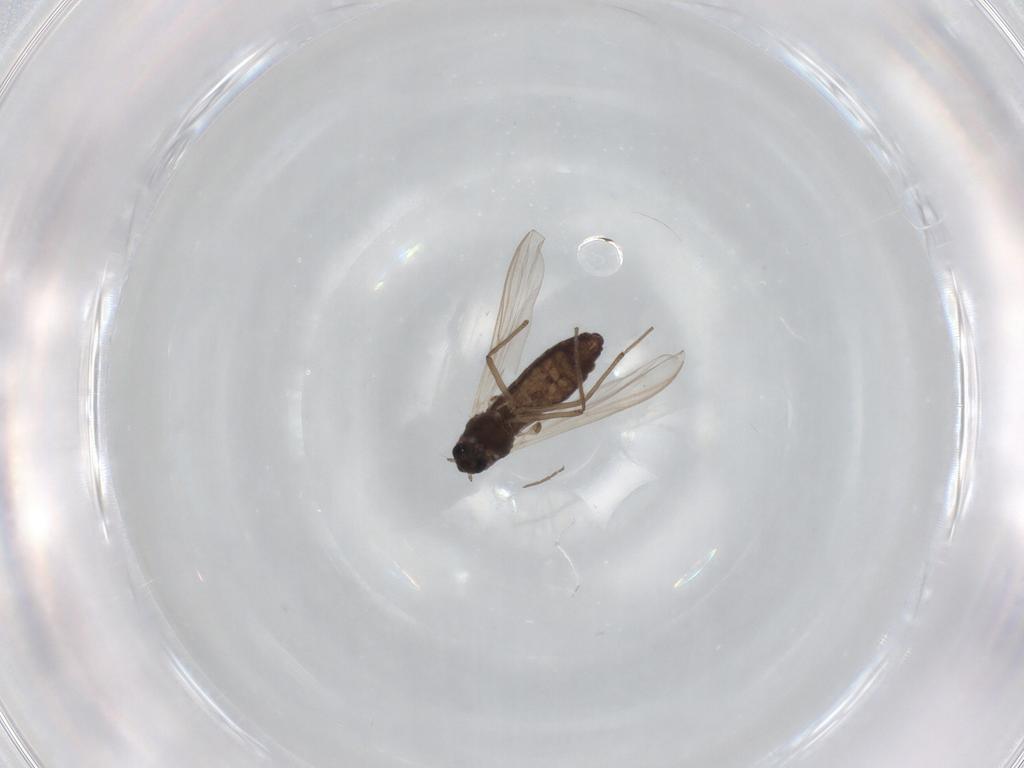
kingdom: Animalia
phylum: Arthropoda
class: Insecta
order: Diptera
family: Chironomidae
